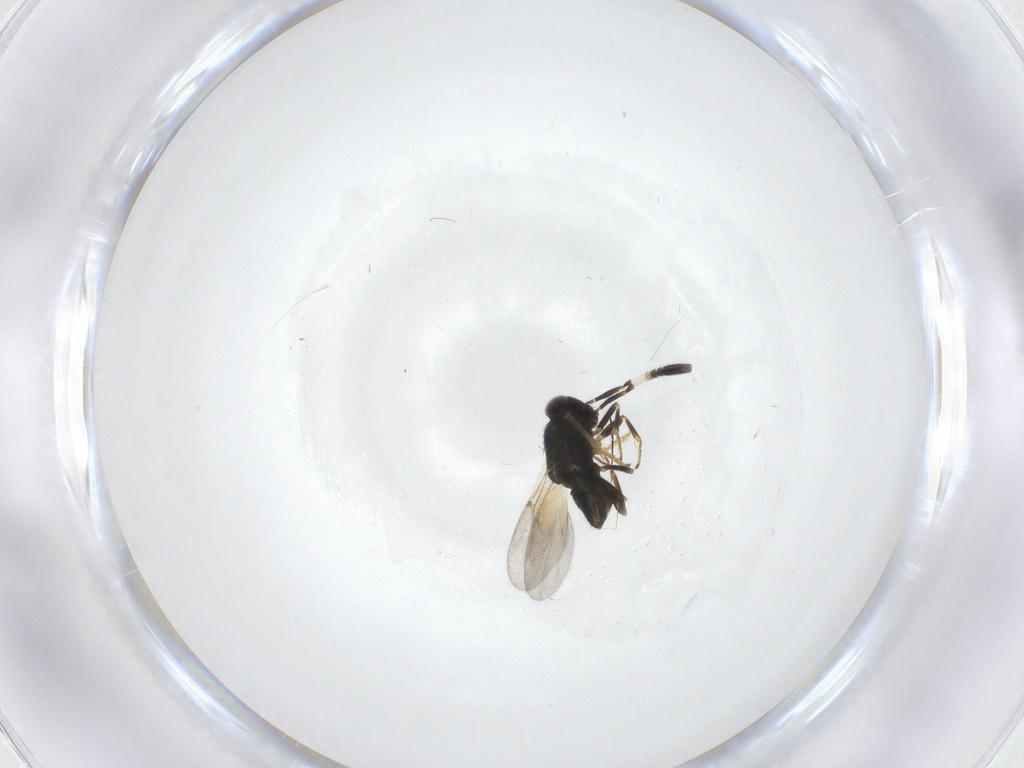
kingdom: Animalia
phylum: Arthropoda
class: Insecta
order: Hymenoptera
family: Encyrtidae
